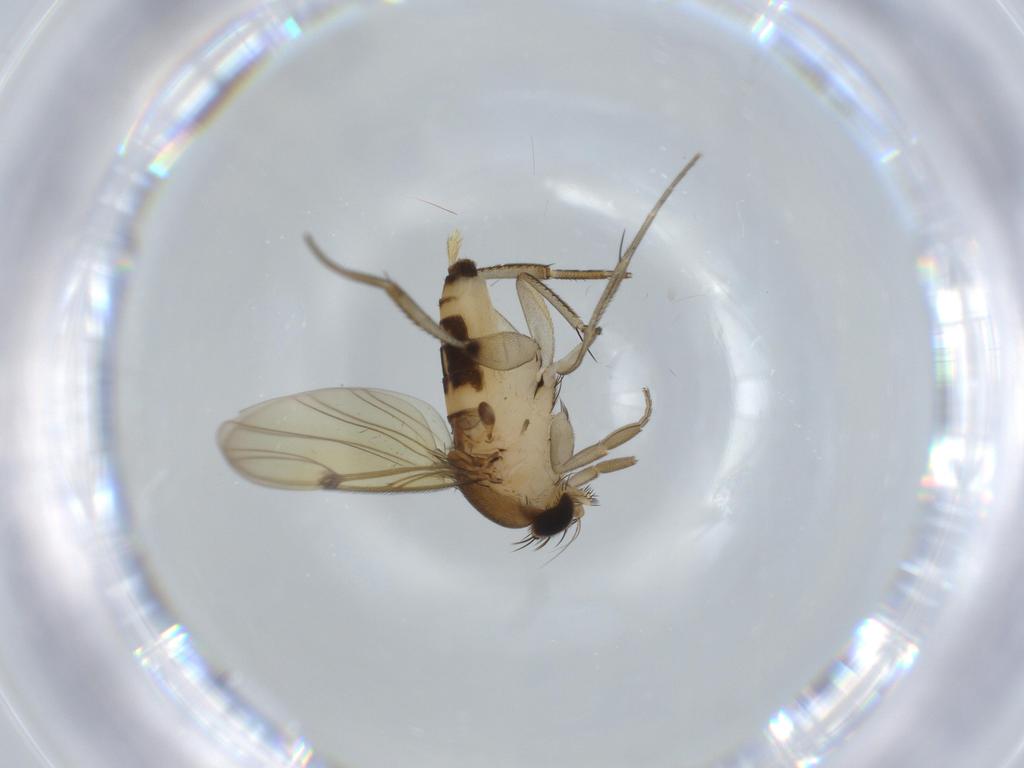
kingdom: Animalia
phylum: Arthropoda
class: Insecta
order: Diptera
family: Phoridae
